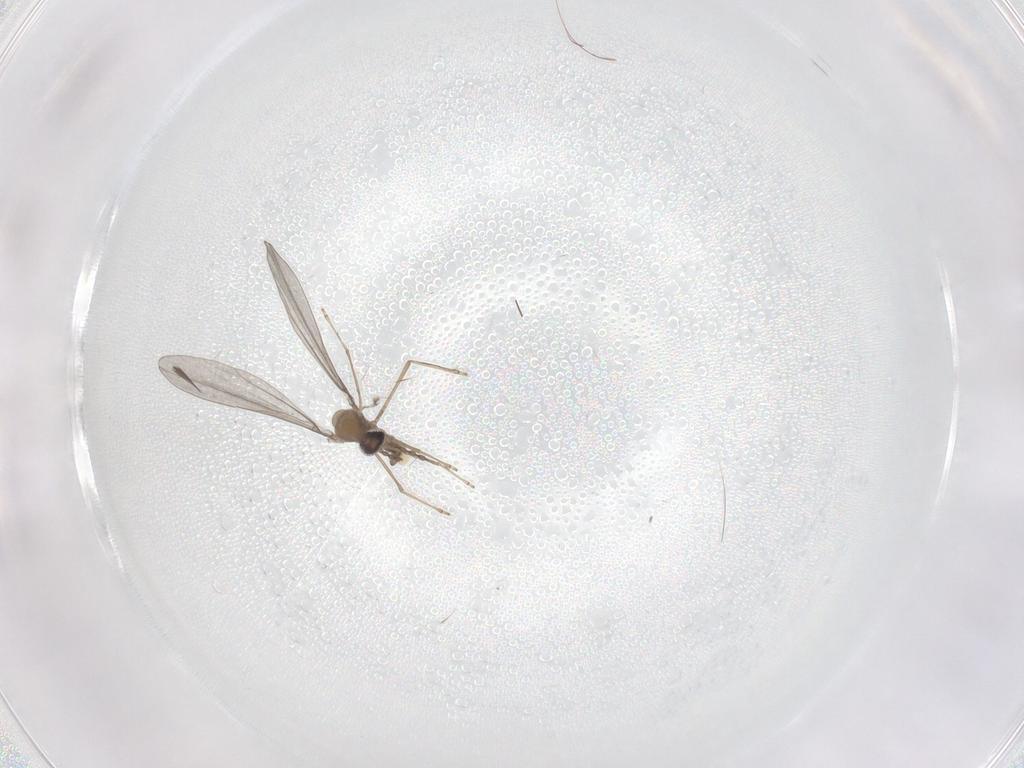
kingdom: Animalia
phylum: Arthropoda
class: Insecta
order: Diptera
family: Cecidomyiidae
